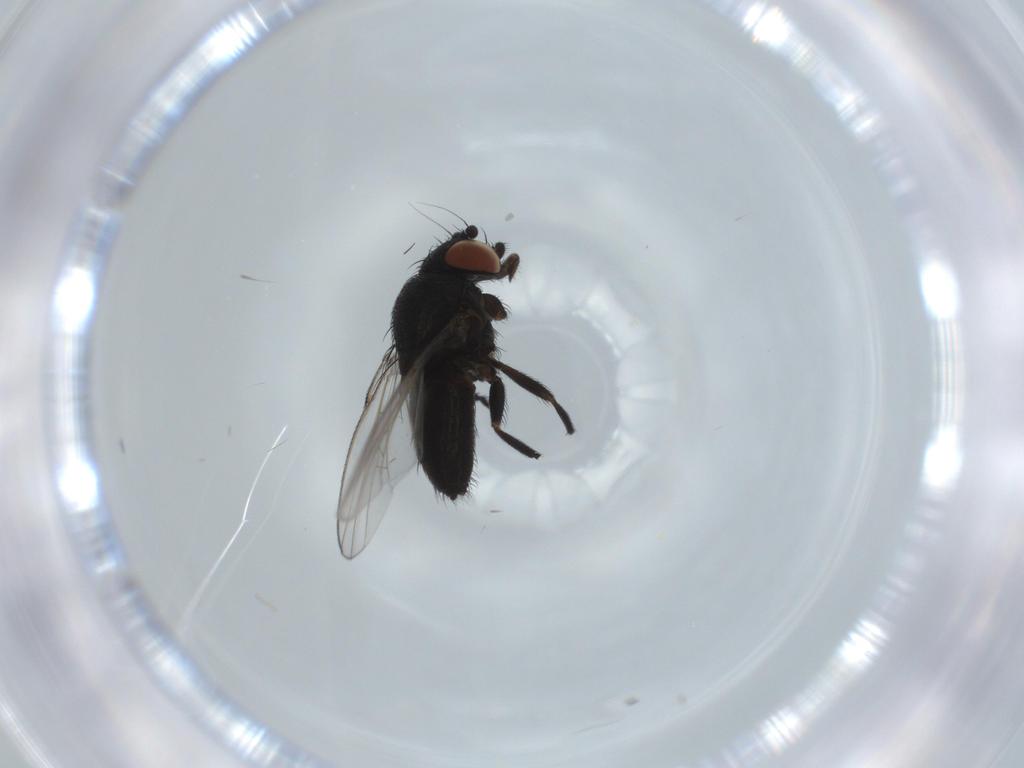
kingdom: Animalia
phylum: Arthropoda
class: Insecta
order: Diptera
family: Milichiidae
